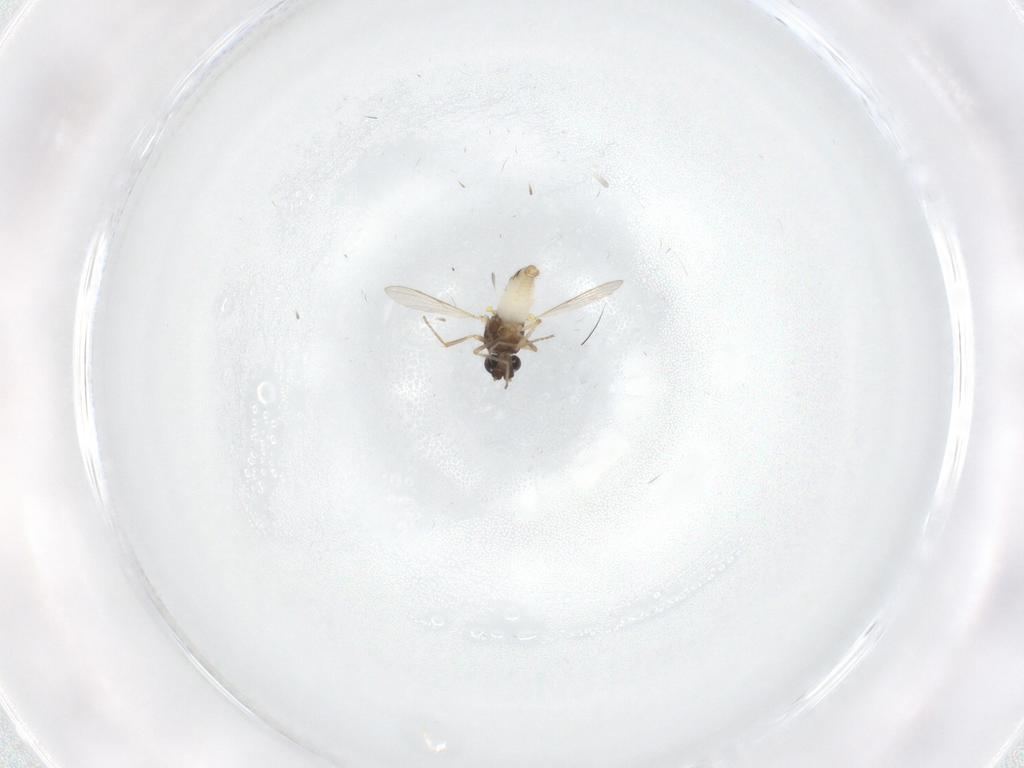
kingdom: Animalia
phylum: Arthropoda
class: Insecta
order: Diptera
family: Ceratopogonidae
